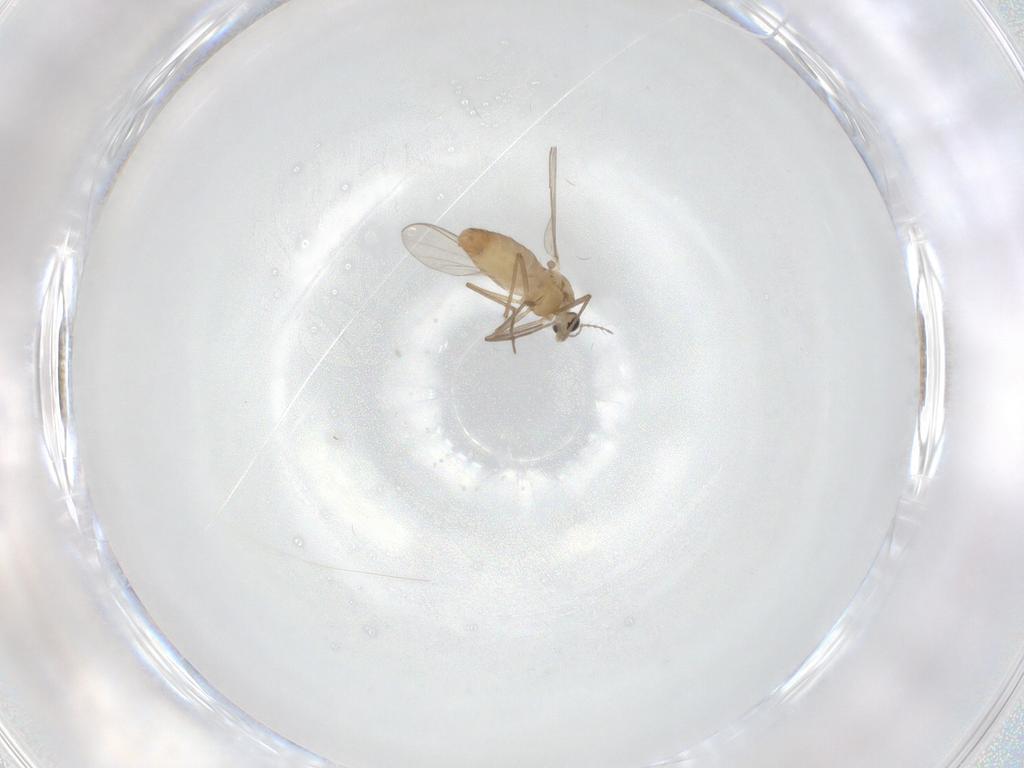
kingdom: Animalia
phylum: Arthropoda
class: Insecta
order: Diptera
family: Chironomidae
